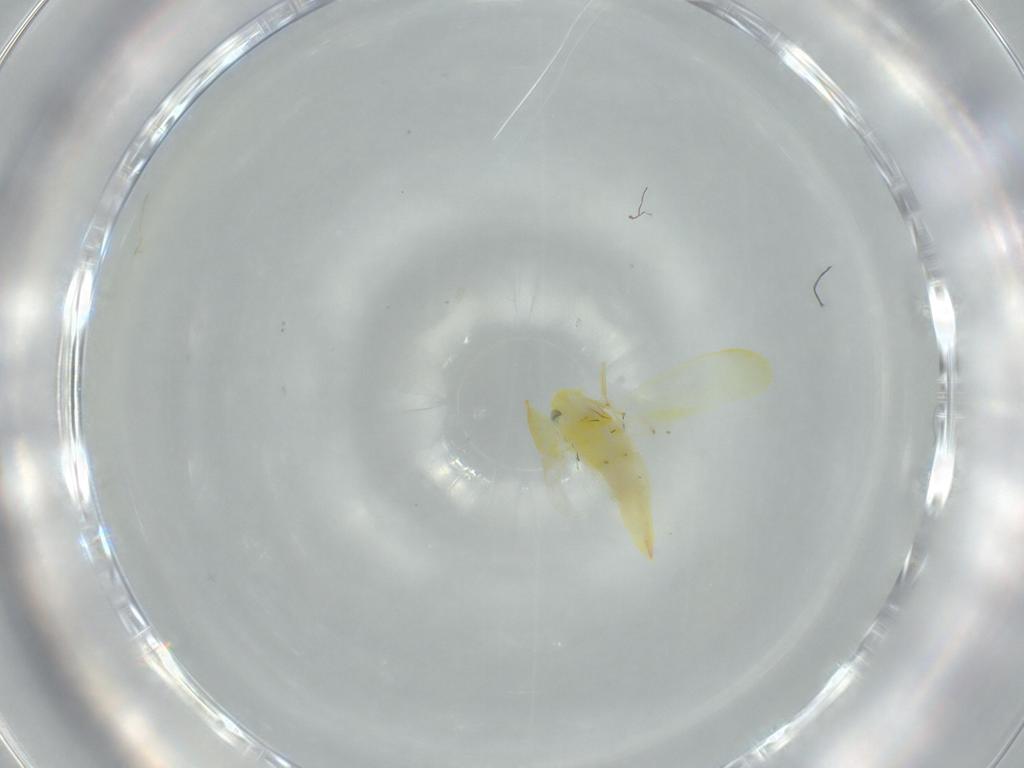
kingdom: Animalia
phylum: Arthropoda
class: Insecta
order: Hemiptera
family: Cicadellidae
